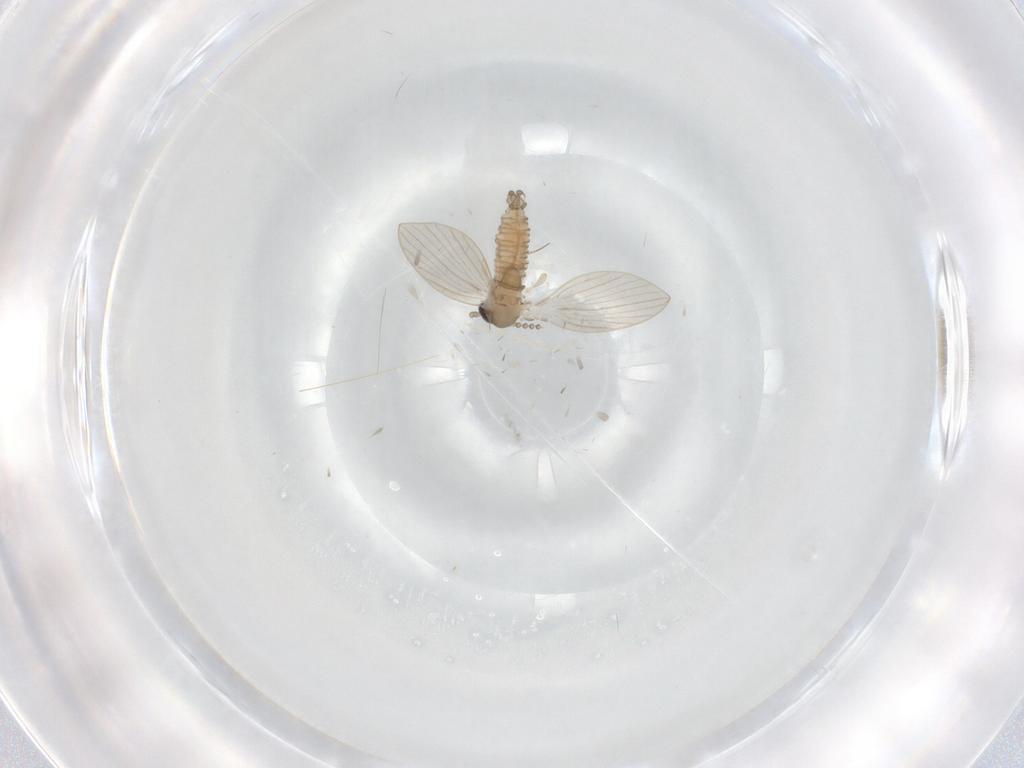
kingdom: Animalia
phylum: Arthropoda
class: Insecta
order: Diptera
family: Psychodidae
